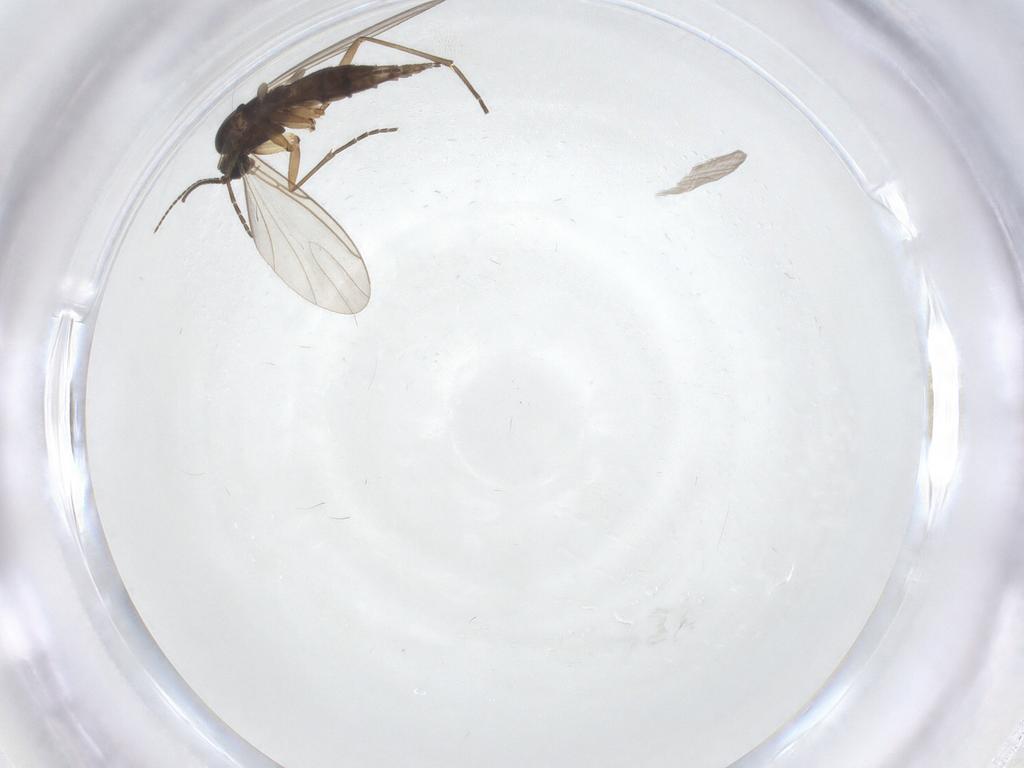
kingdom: Animalia
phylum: Arthropoda
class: Insecta
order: Diptera
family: Sciaridae
